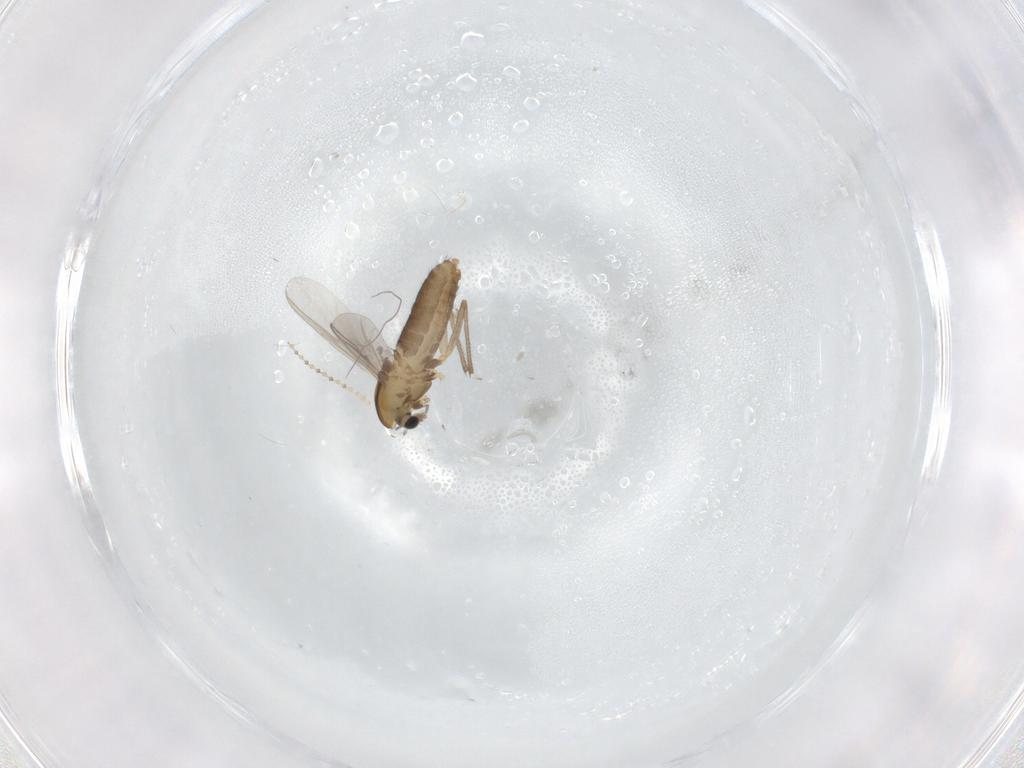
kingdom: Animalia
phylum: Arthropoda
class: Insecta
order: Diptera
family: Chironomidae
